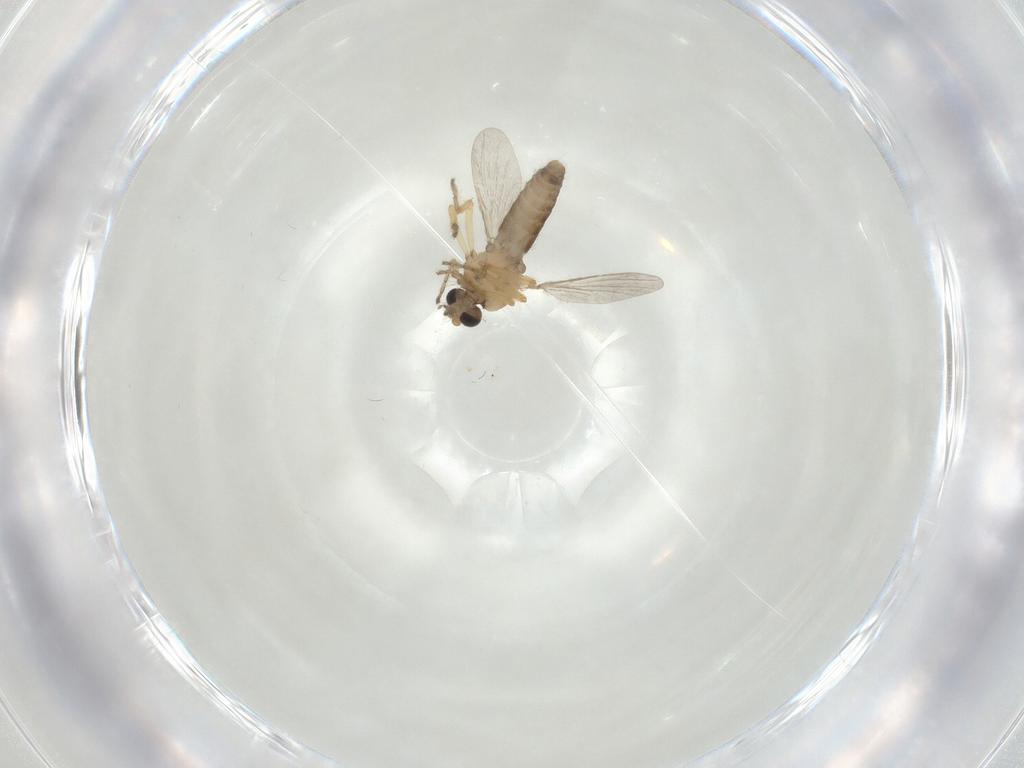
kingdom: Animalia
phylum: Arthropoda
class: Insecta
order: Diptera
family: Ceratopogonidae
